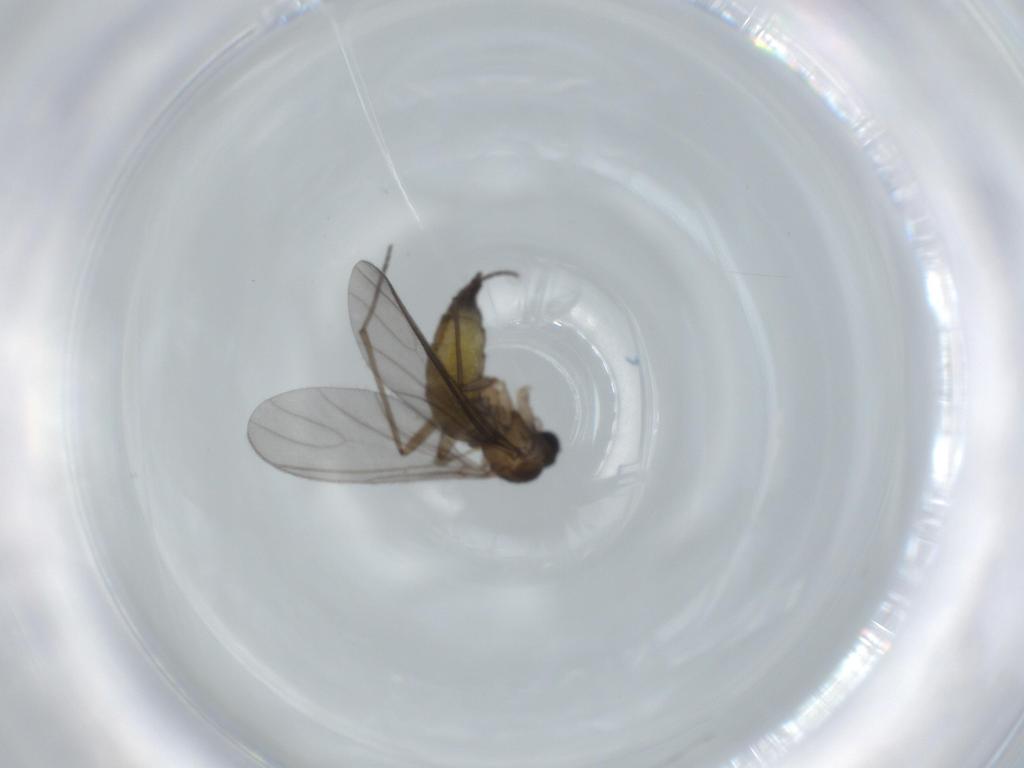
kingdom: Animalia
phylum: Arthropoda
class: Insecta
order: Diptera
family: Sciaridae
